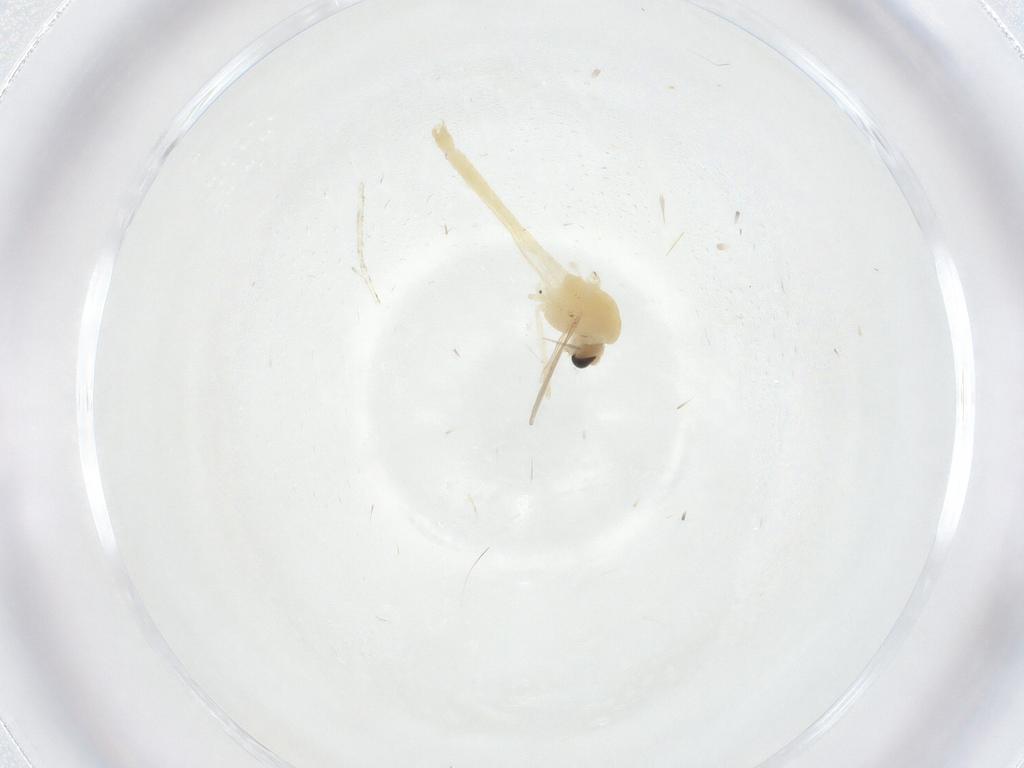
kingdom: Animalia
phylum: Arthropoda
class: Insecta
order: Diptera
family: Chironomidae
